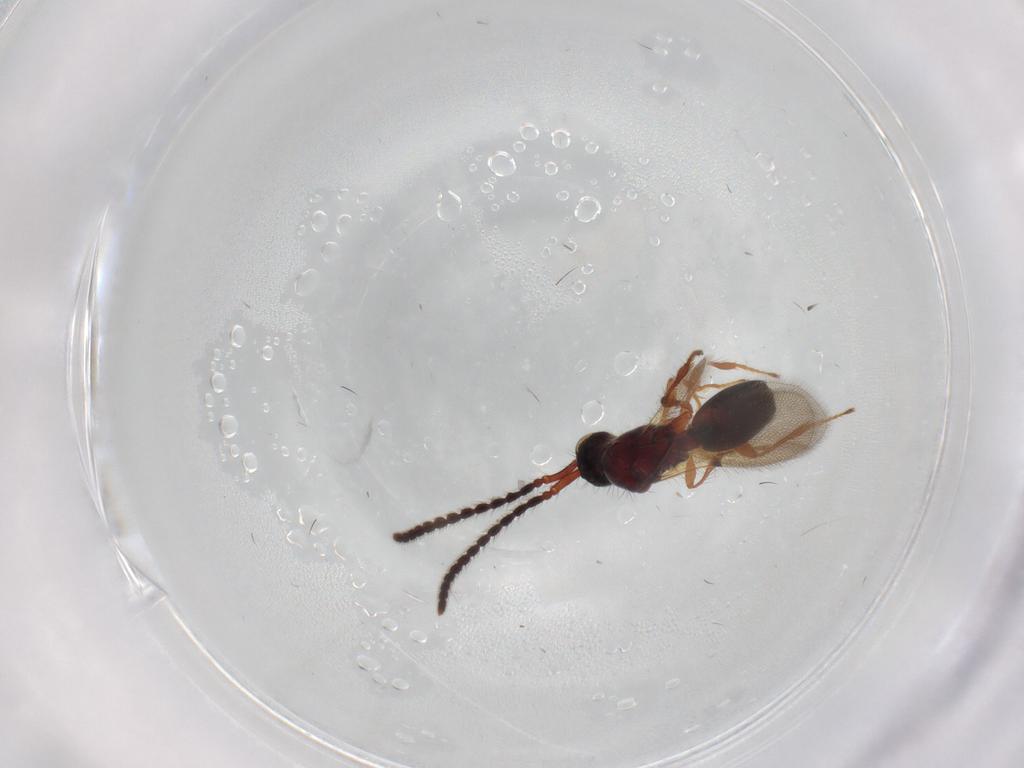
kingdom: Animalia
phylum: Arthropoda
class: Insecta
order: Hymenoptera
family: Diapriidae
